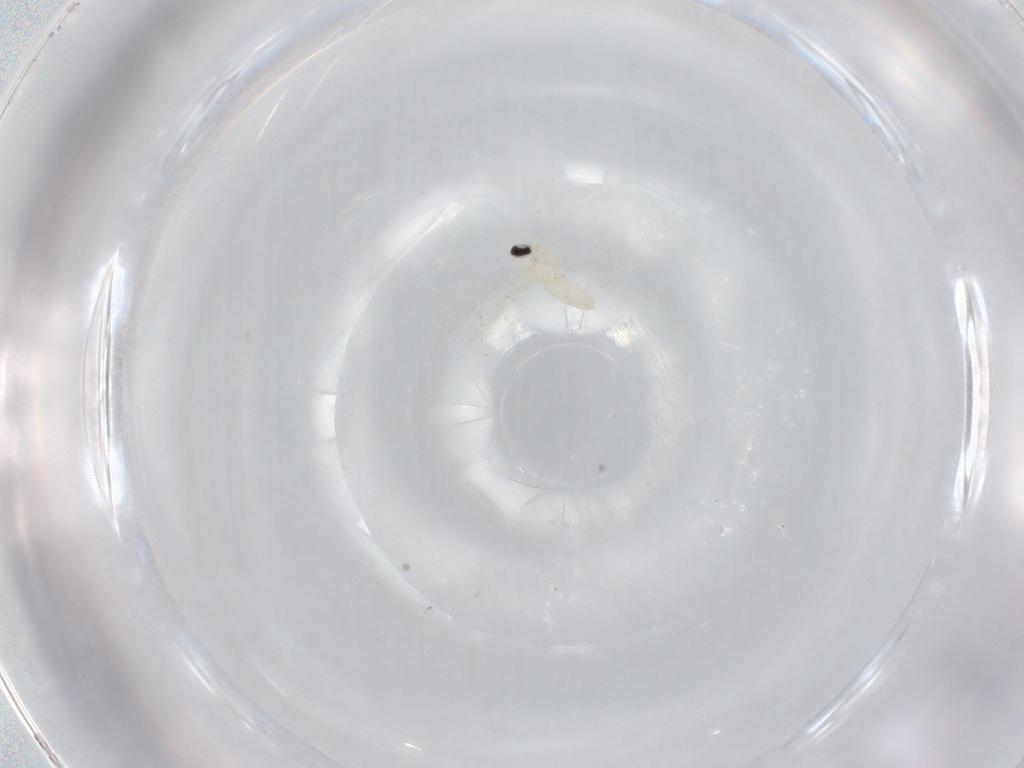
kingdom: Animalia
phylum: Arthropoda
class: Insecta
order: Diptera
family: Cecidomyiidae
